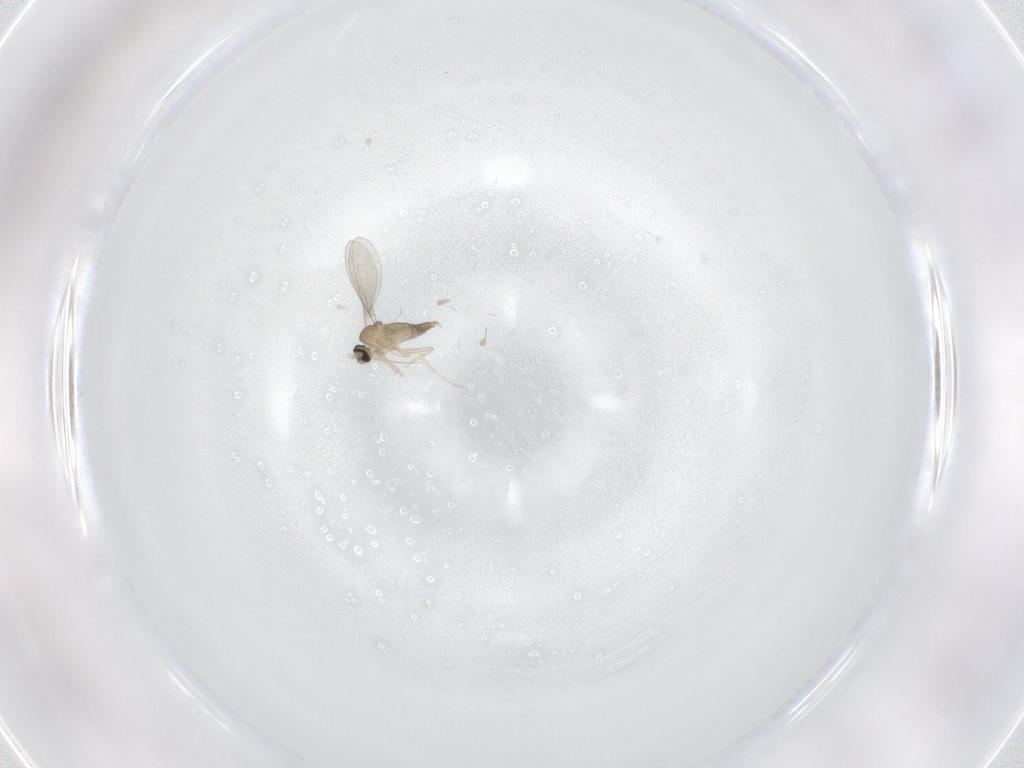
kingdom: Animalia
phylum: Arthropoda
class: Insecta
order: Diptera
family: Cecidomyiidae
